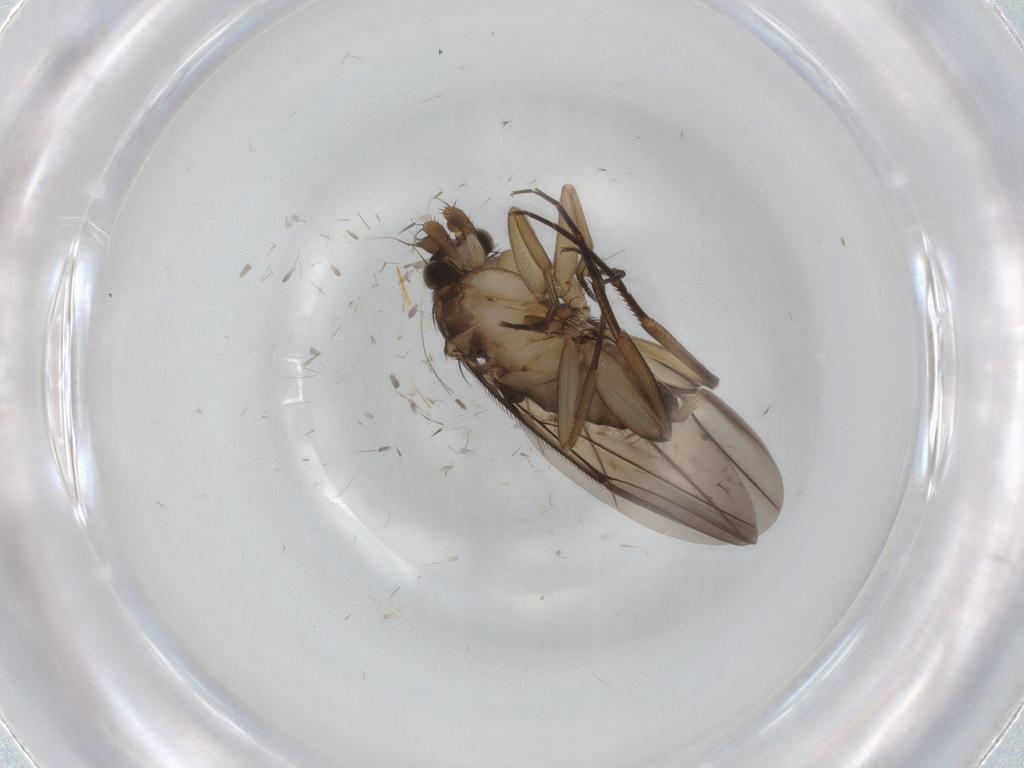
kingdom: Animalia
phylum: Arthropoda
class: Insecta
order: Diptera
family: Chironomidae
